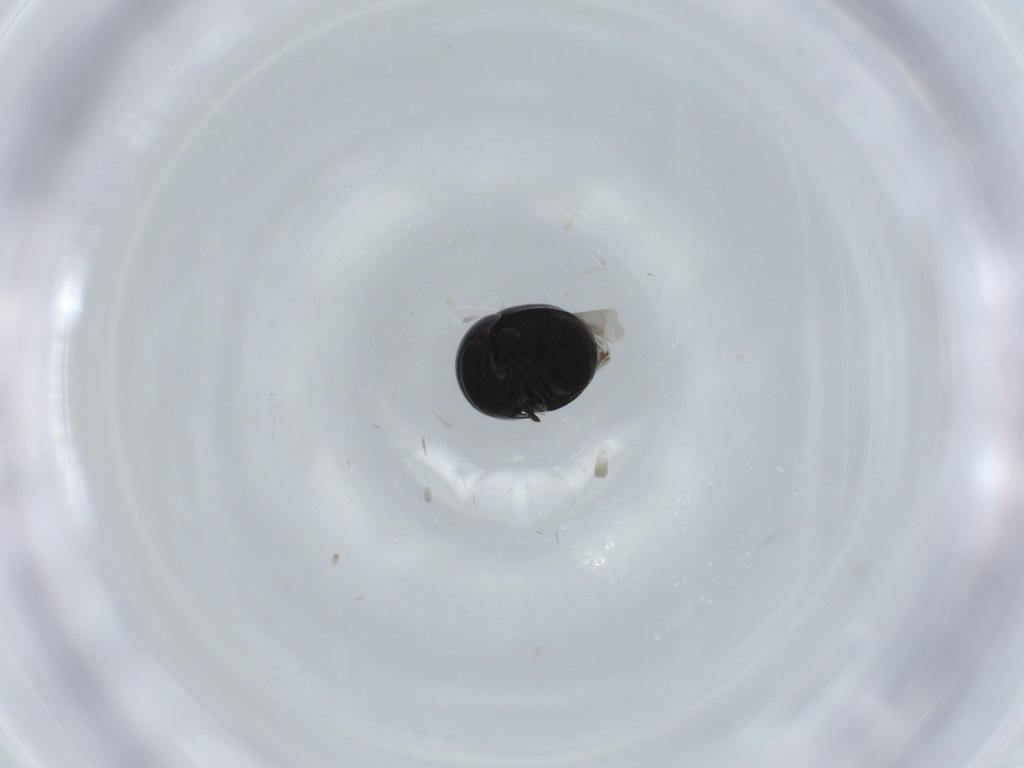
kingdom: Animalia
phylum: Arthropoda
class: Insecta
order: Coleoptera
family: Cybocephalidae
